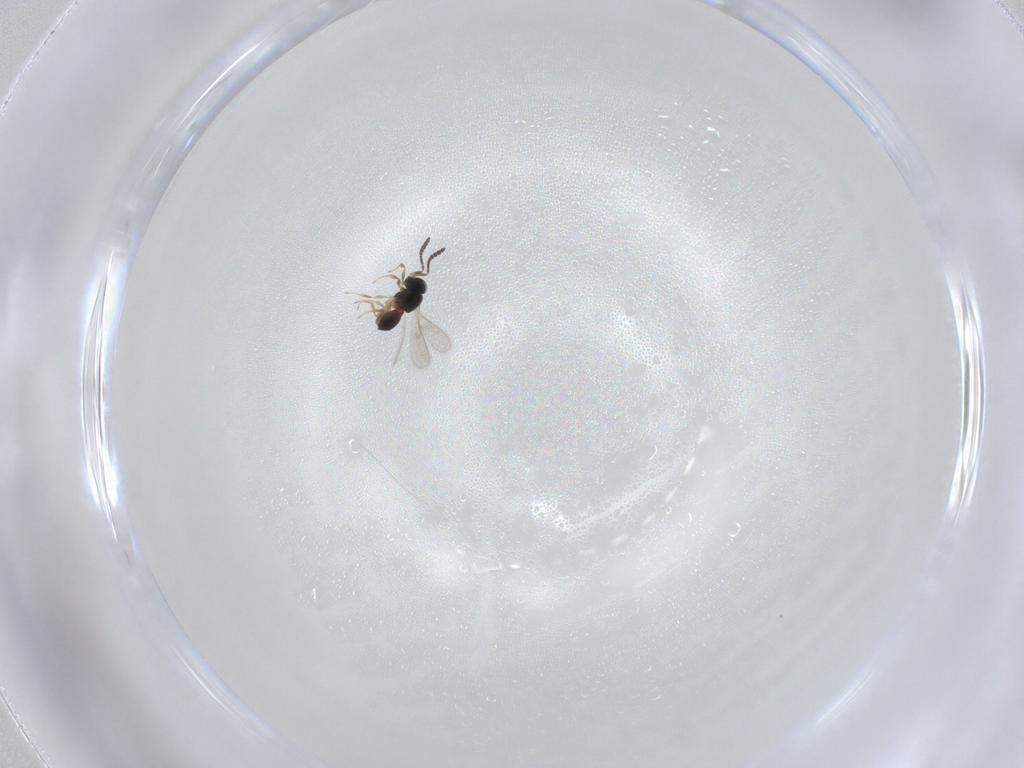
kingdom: Animalia
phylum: Arthropoda
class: Insecta
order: Hymenoptera
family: Scelionidae
